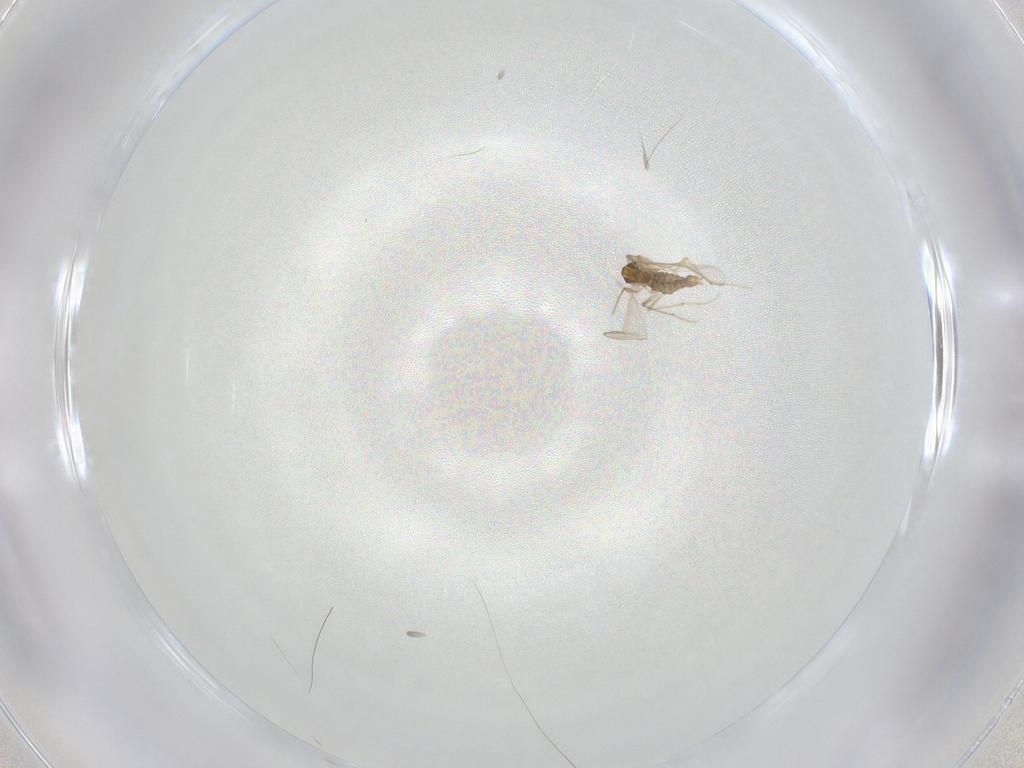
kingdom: Animalia
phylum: Arthropoda
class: Insecta
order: Diptera
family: Chironomidae
